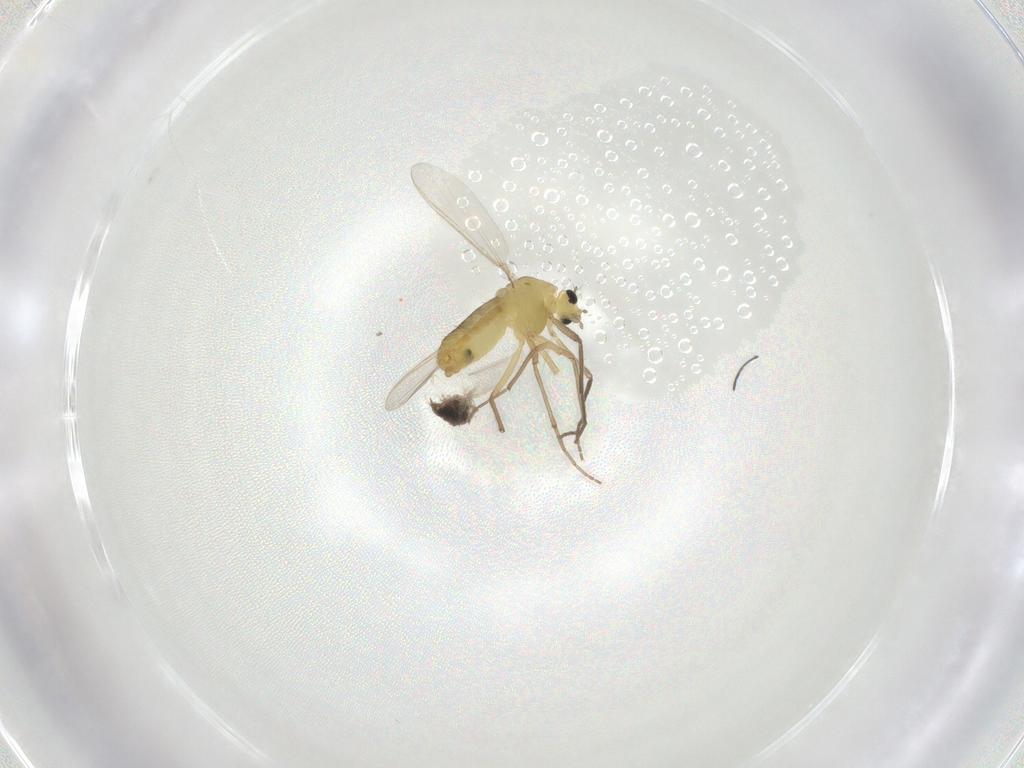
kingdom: Animalia
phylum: Arthropoda
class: Insecta
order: Diptera
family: Chironomidae
